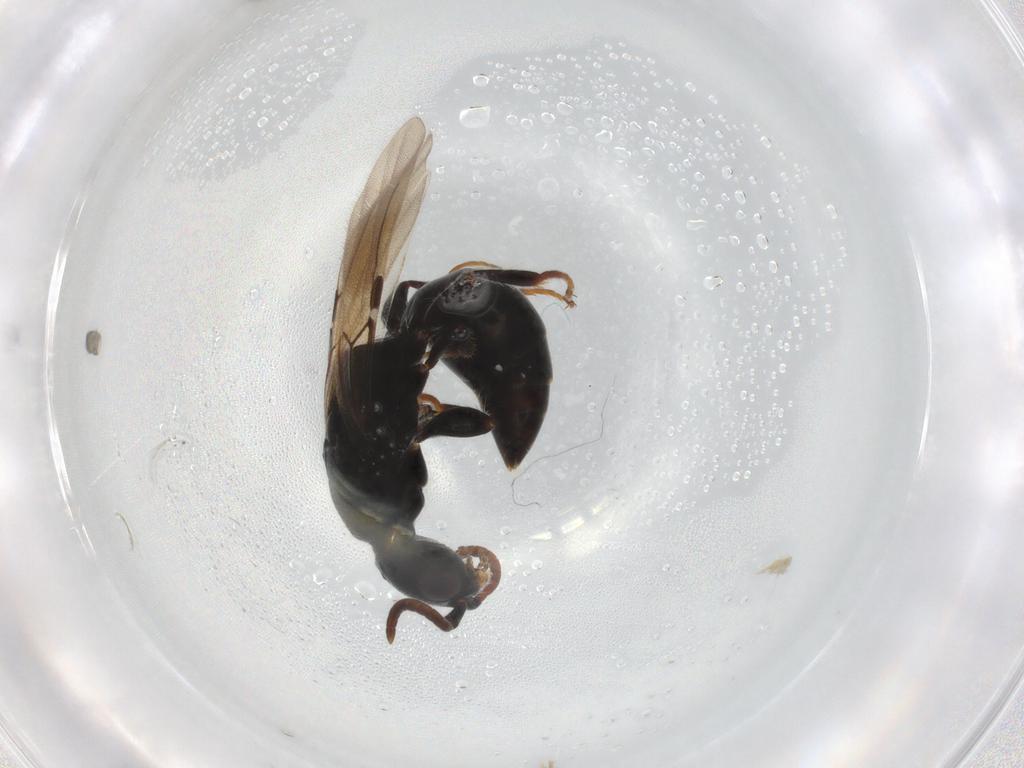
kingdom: Animalia
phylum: Arthropoda
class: Insecta
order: Hymenoptera
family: Bethylidae
